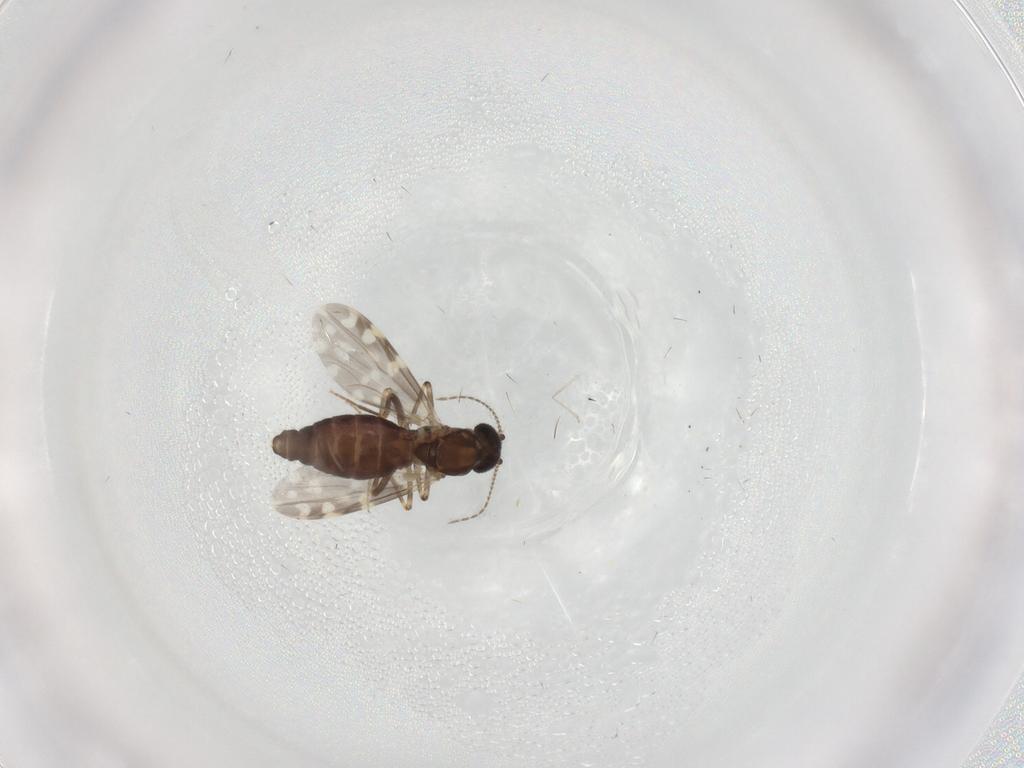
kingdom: Animalia
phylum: Arthropoda
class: Insecta
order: Diptera
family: Ceratopogonidae
